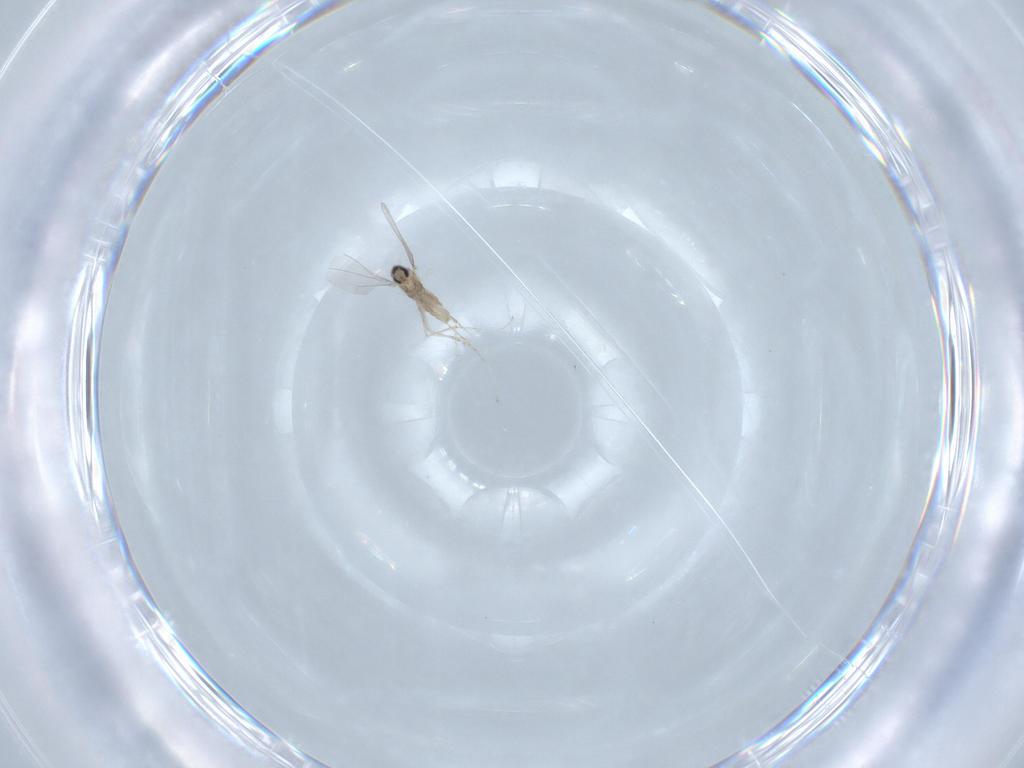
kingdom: Animalia
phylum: Arthropoda
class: Insecta
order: Diptera
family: Cecidomyiidae
